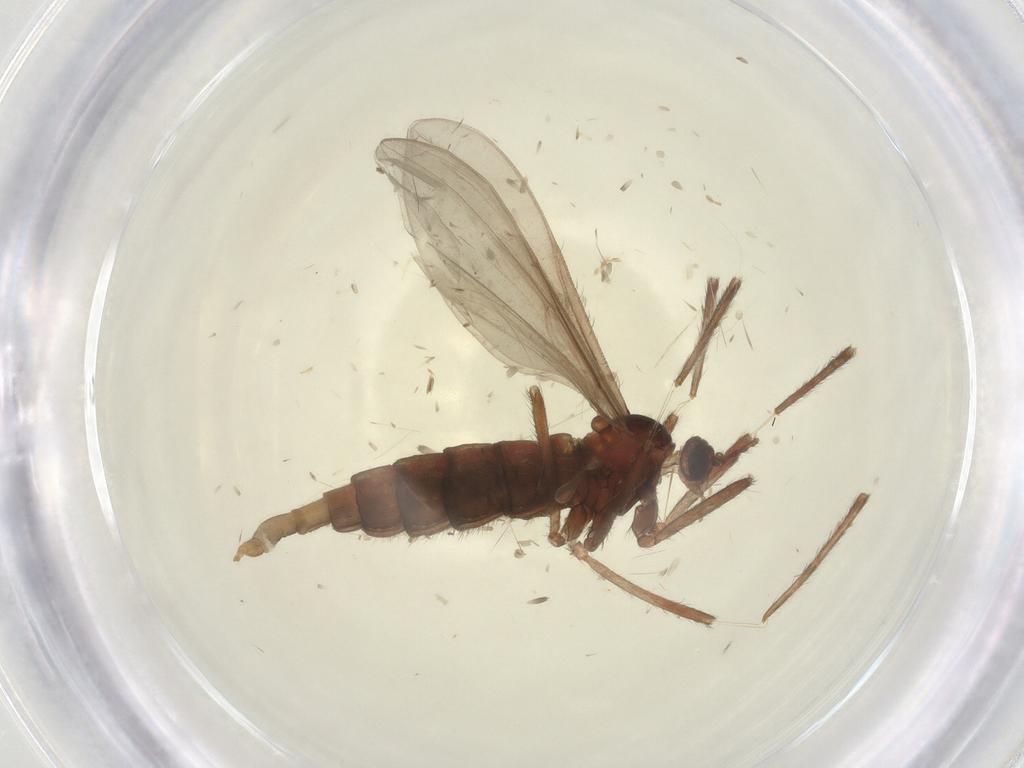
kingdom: Animalia
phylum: Arthropoda
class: Insecta
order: Diptera
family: Cecidomyiidae
